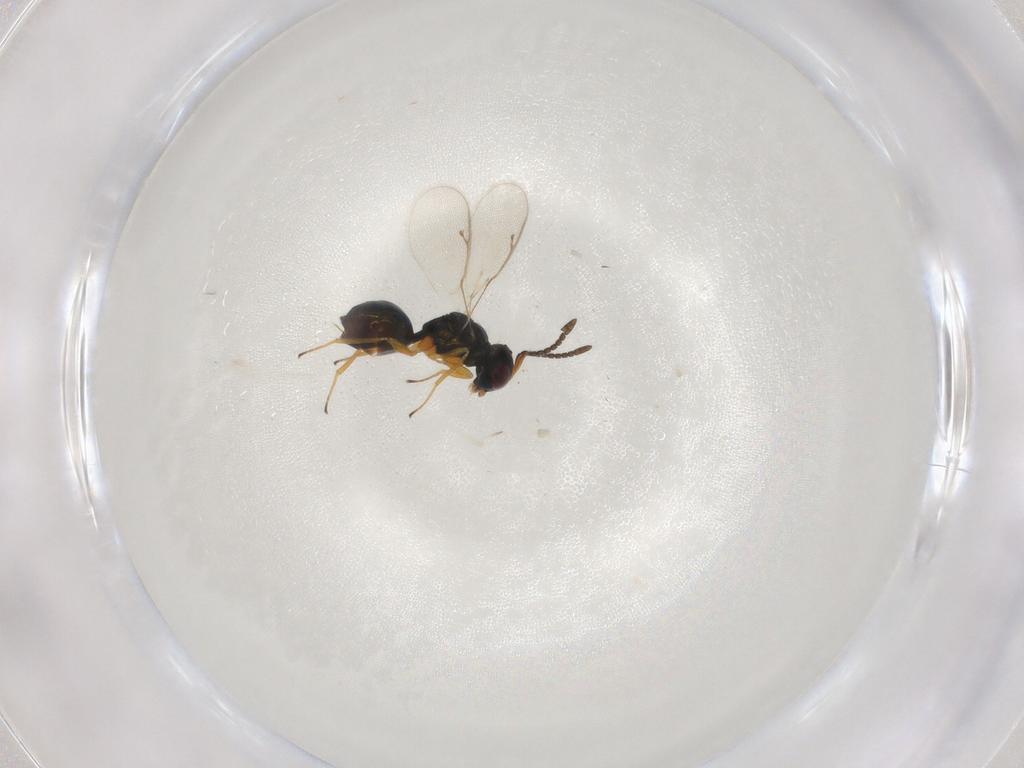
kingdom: Animalia
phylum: Arthropoda
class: Insecta
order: Hymenoptera
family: Pteromalidae
